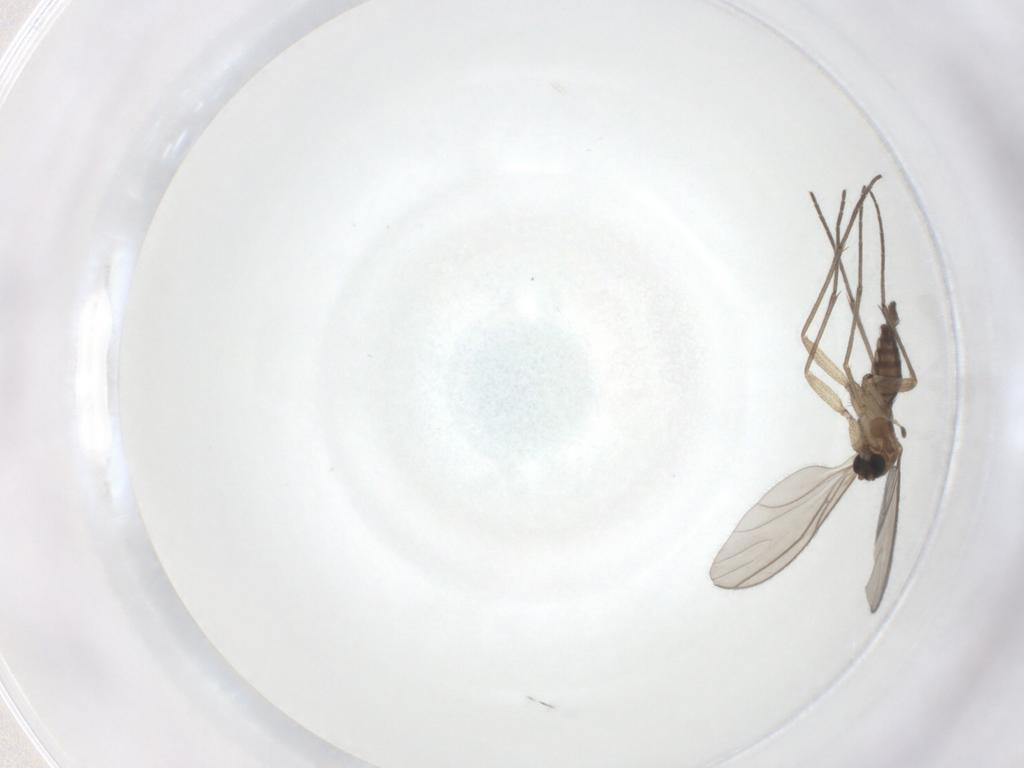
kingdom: Animalia
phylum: Arthropoda
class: Insecta
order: Diptera
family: Sciaridae
